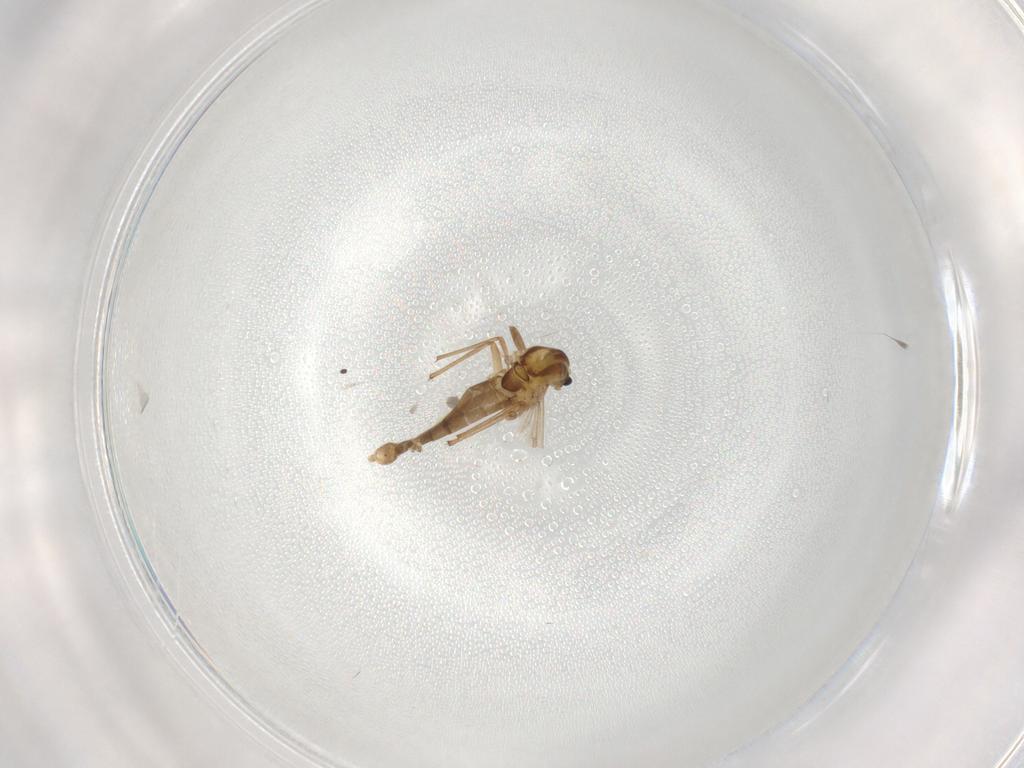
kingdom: Animalia
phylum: Arthropoda
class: Insecta
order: Diptera
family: Chironomidae
